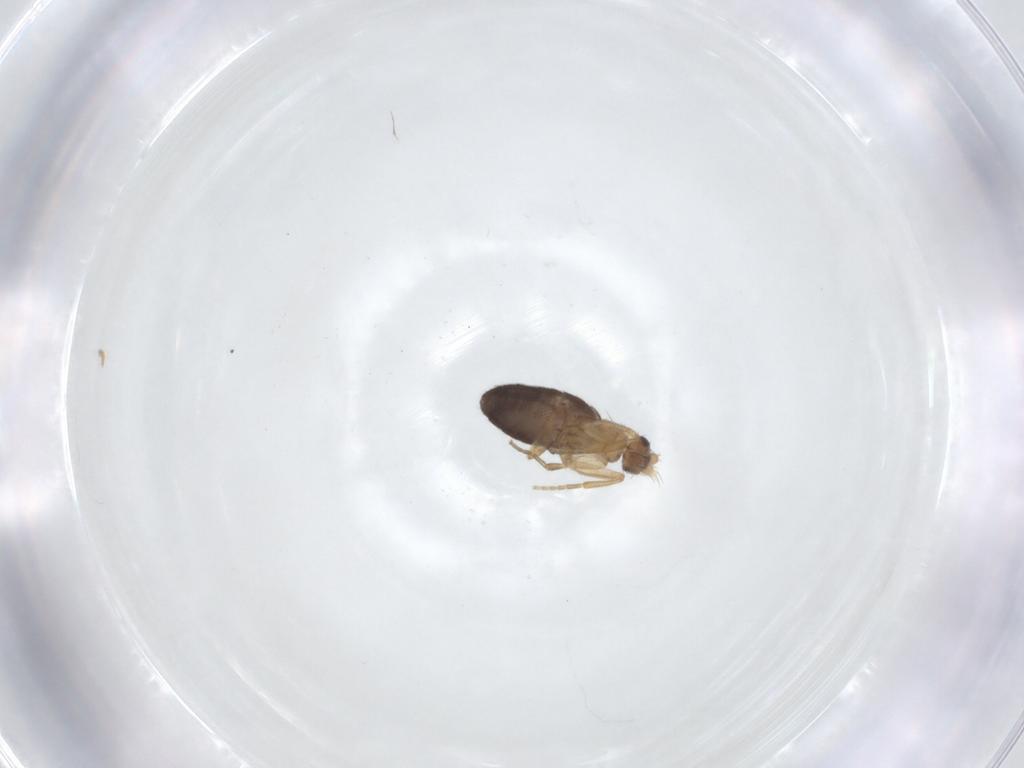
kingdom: Animalia
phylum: Arthropoda
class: Insecta
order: Diptera
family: Phoridae
